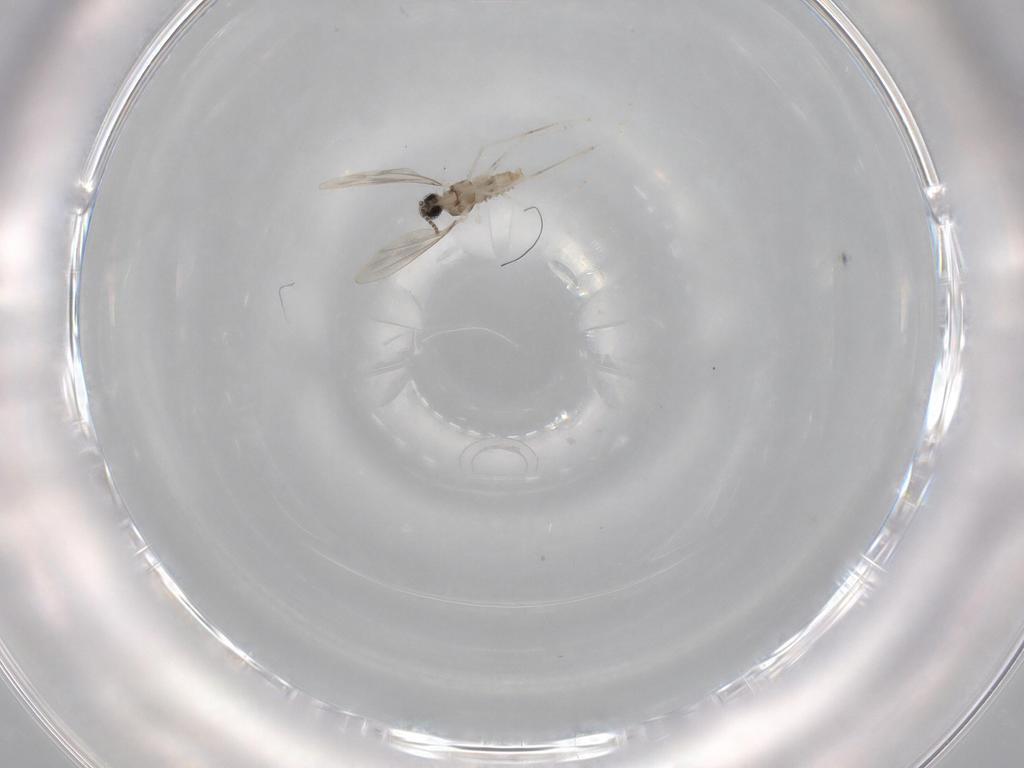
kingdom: Animalia
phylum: Arthropoda
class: Insecta
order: Diptera
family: Cecidomyiidae
